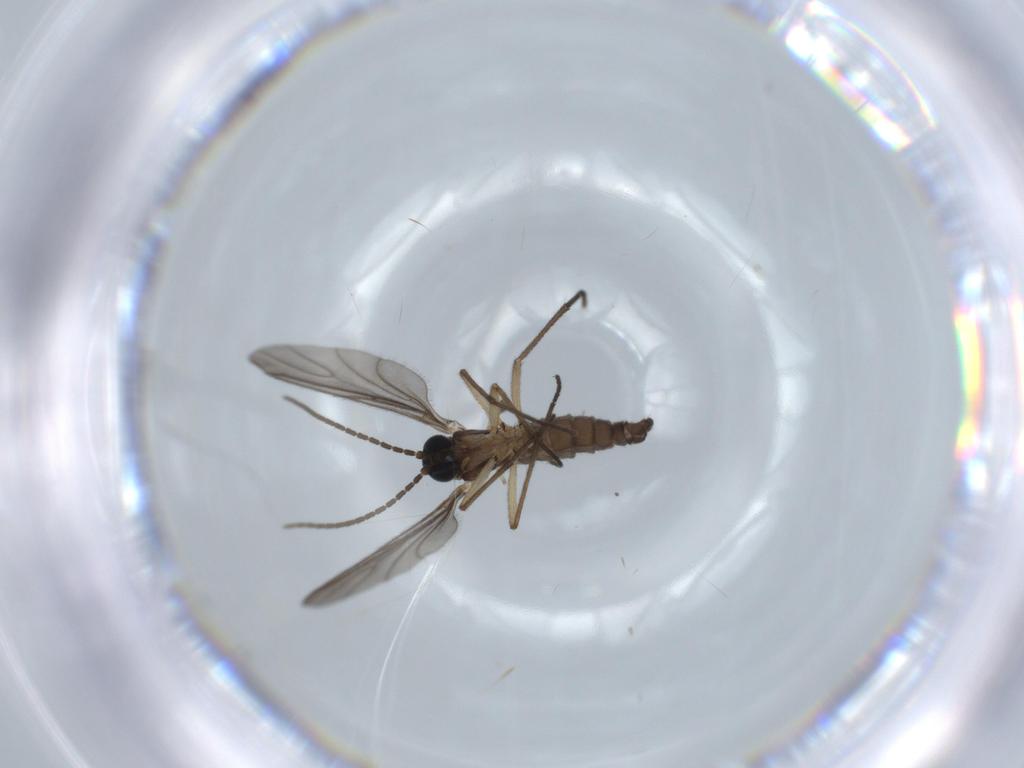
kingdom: Animalia
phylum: Arthropoda
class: Insecta
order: Diptera
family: Sciaridae
